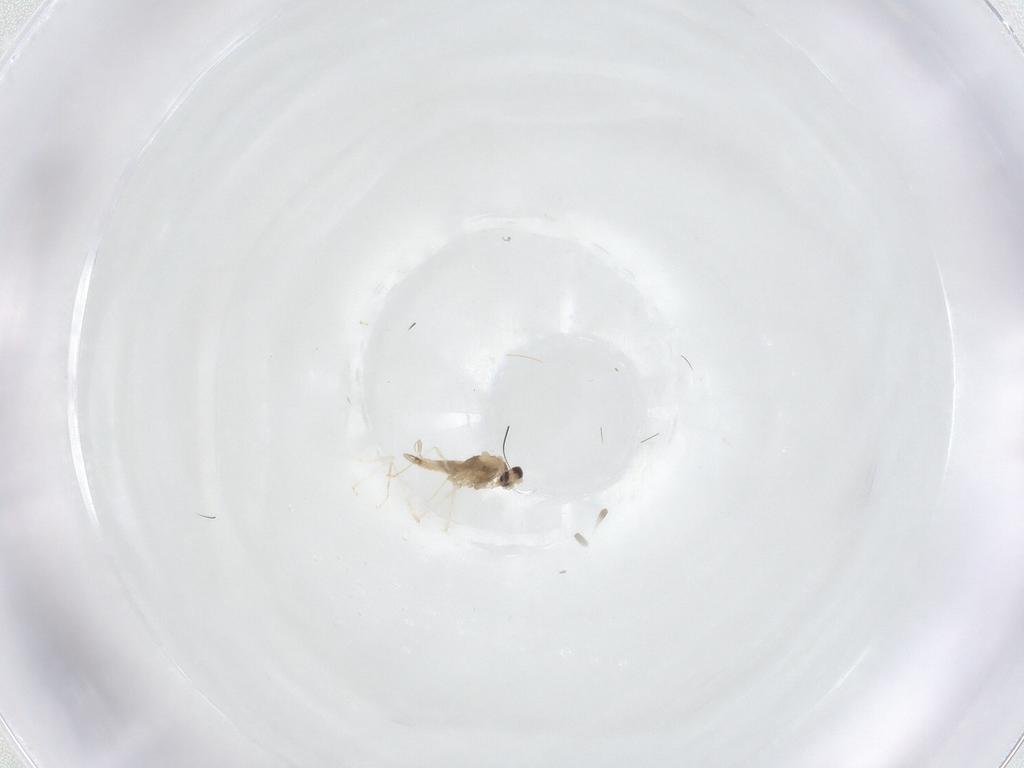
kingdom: Animalia
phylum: Arthropoda
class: Insecta
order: Diptera
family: Cecidomyiidae
